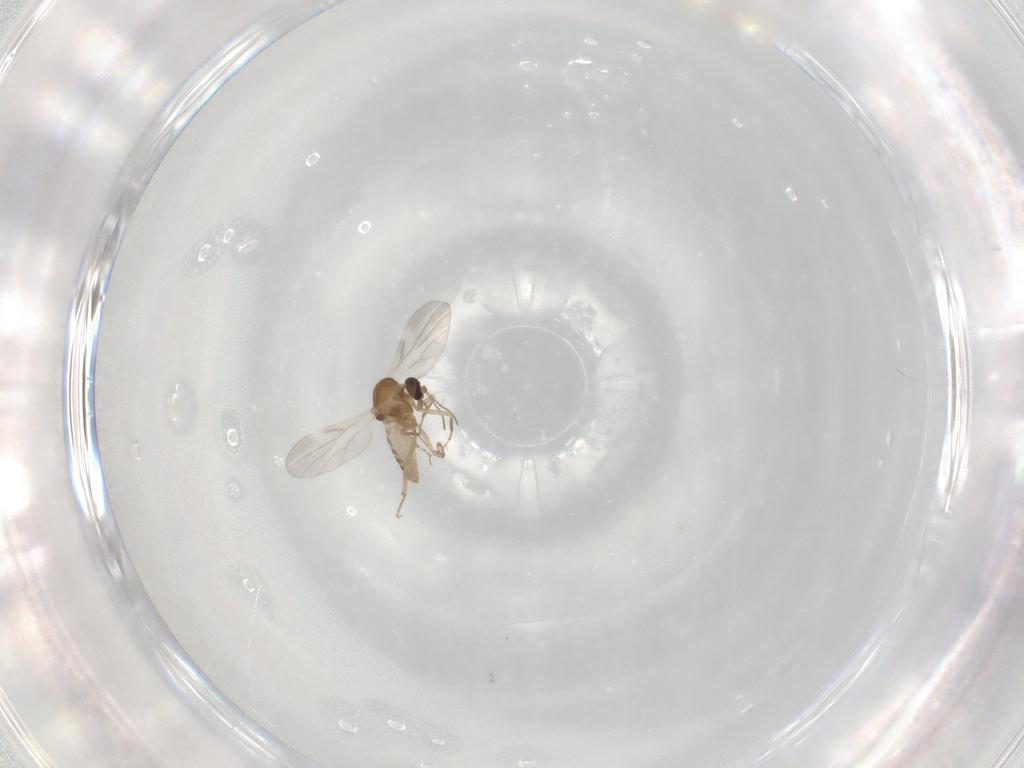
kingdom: Animalia
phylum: Arthropoda
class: Insecta
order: Diptera
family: Ceratopogonidae
